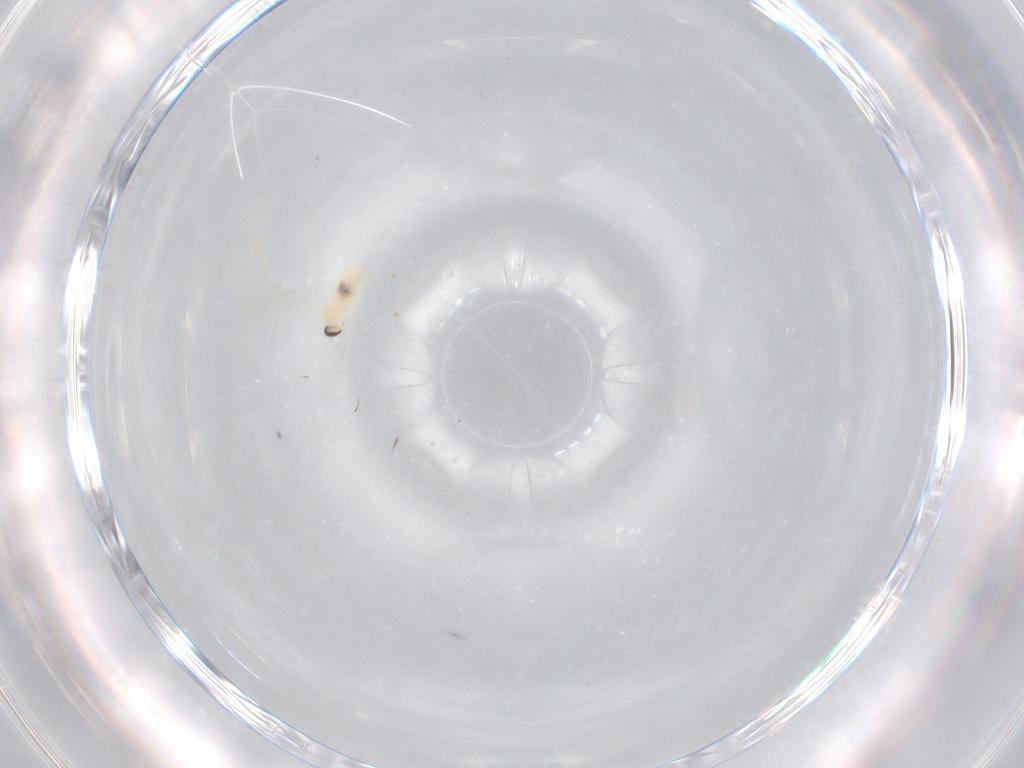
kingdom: Animalia
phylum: Arthropoda
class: Insecta
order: Diptera
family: Cecidomyiidae
